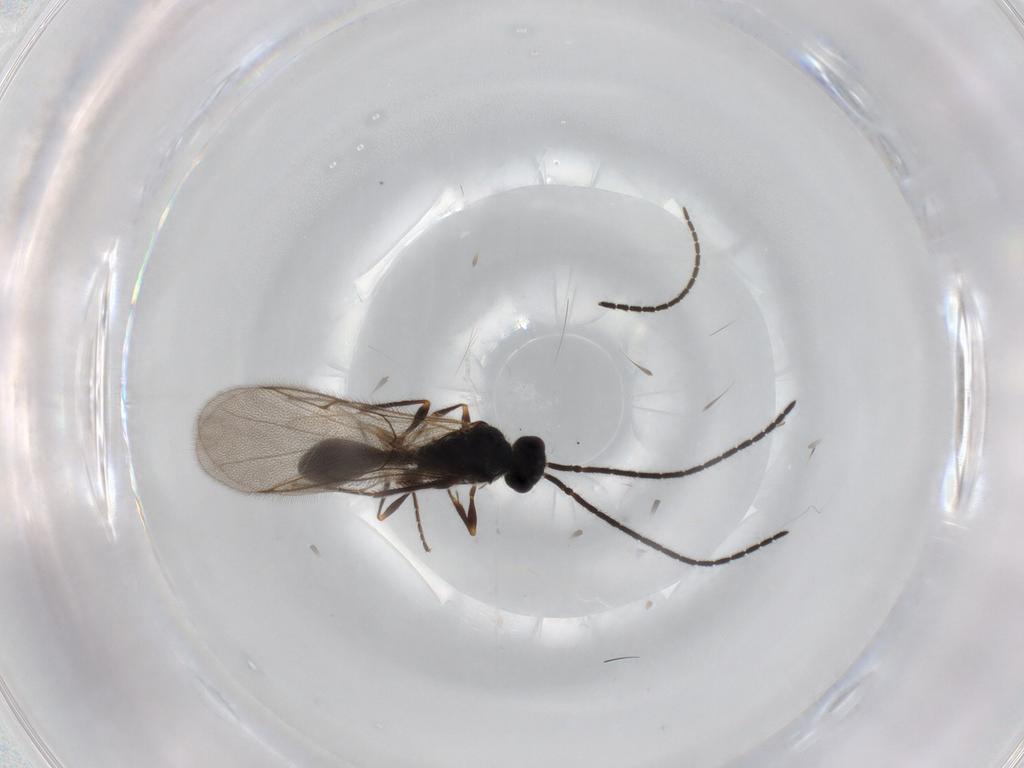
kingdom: Animalia
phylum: Arthropoda
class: Insecta
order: Hymenoptera
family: Diapriidae
